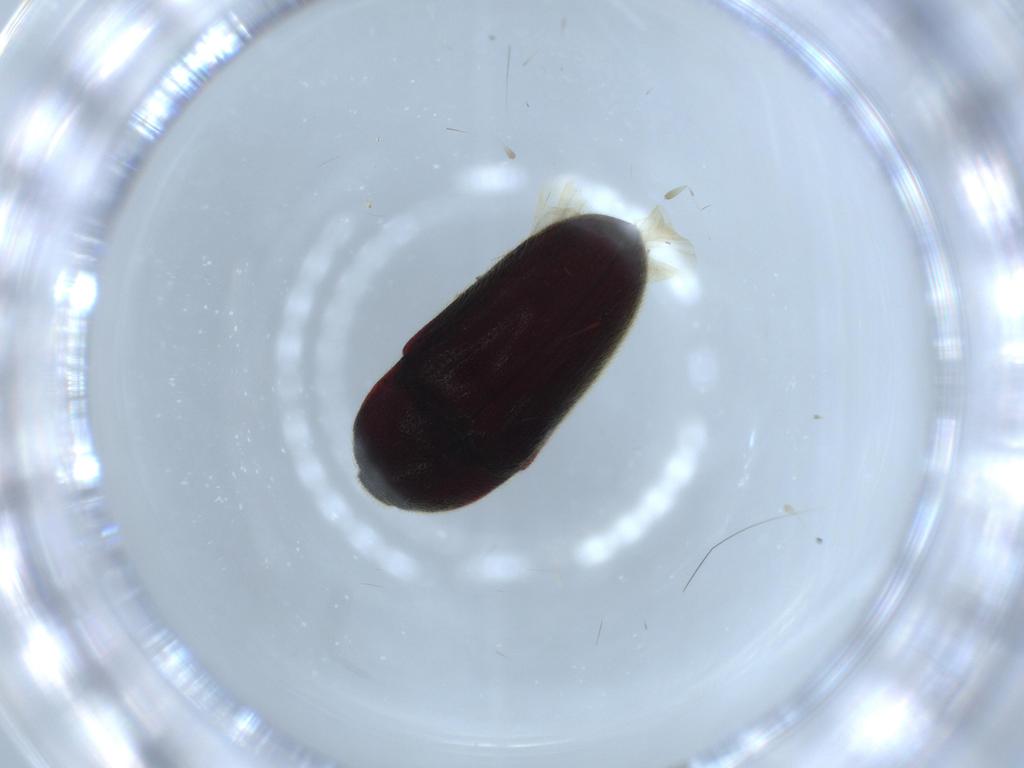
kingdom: Animalia
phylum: Arthropoda
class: Insecta
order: Coleoptera
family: Throscidae
